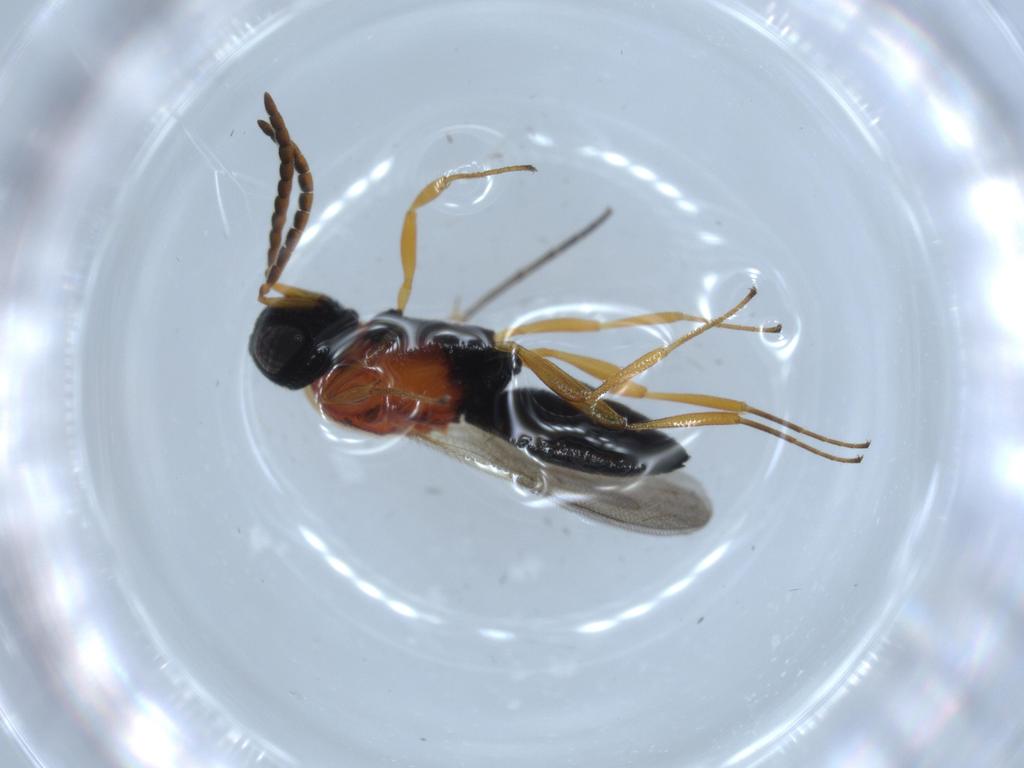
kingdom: Animalia
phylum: Arthropoda
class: Insecta
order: Hymenoptera
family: Scelionidae
